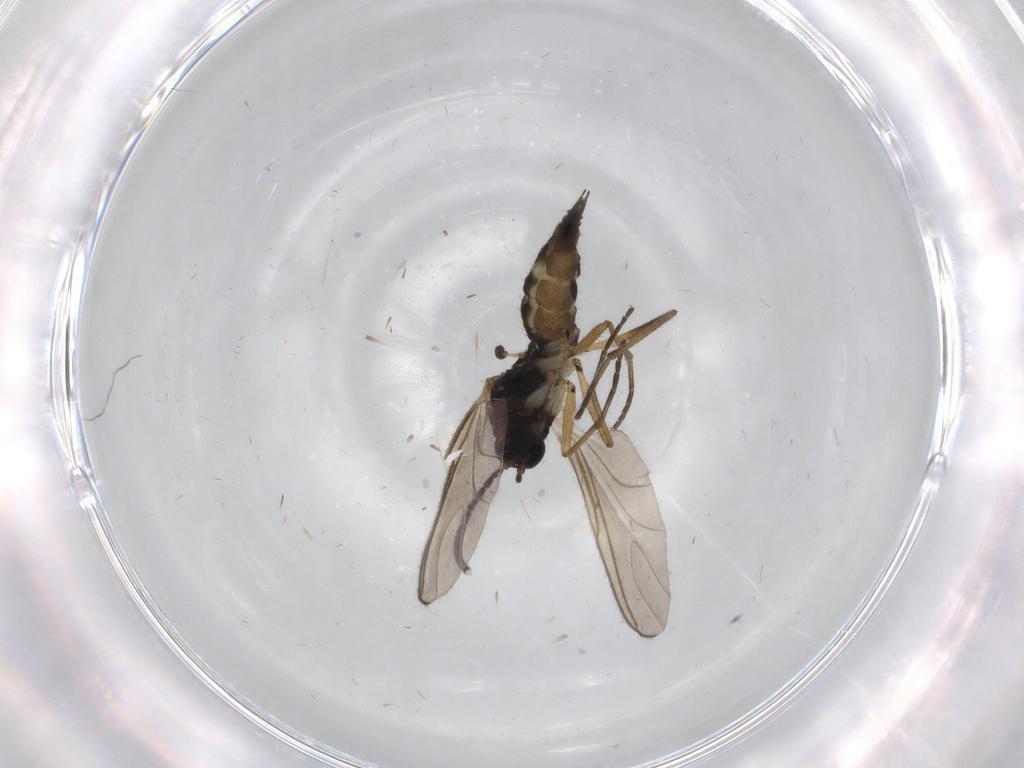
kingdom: Animalia
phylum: Arthropoda
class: Insecta
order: Diptera
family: Sciaridae
